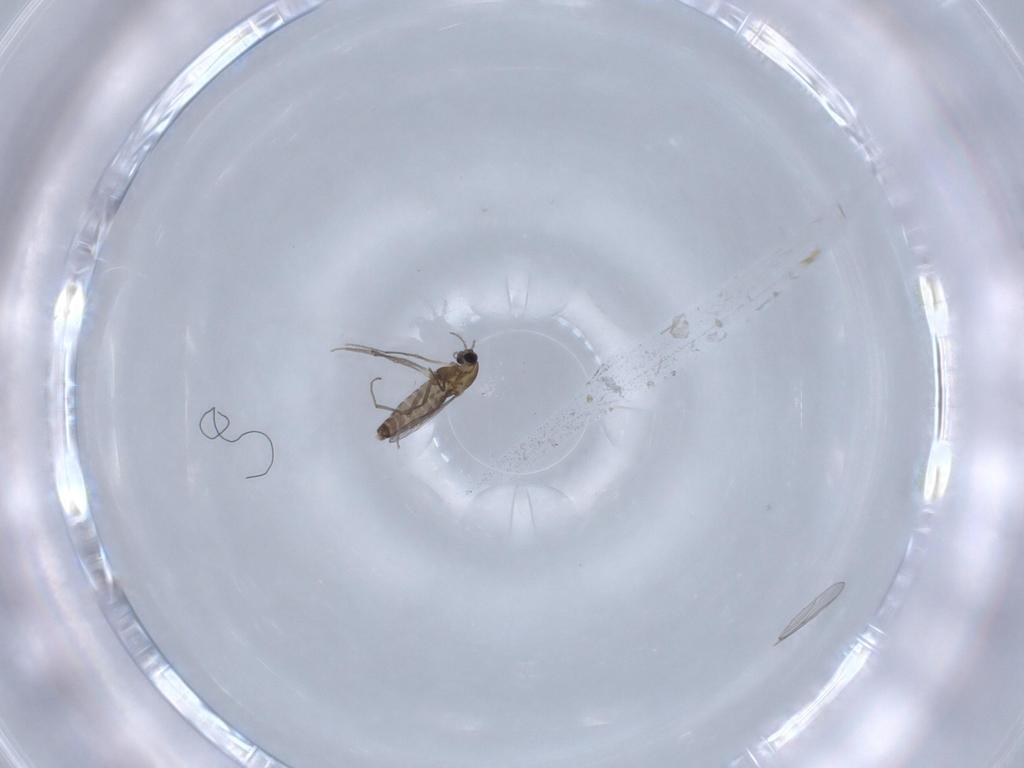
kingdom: Animalia
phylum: Arthropoda
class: Insecta
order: Diptera
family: Chironomidae
